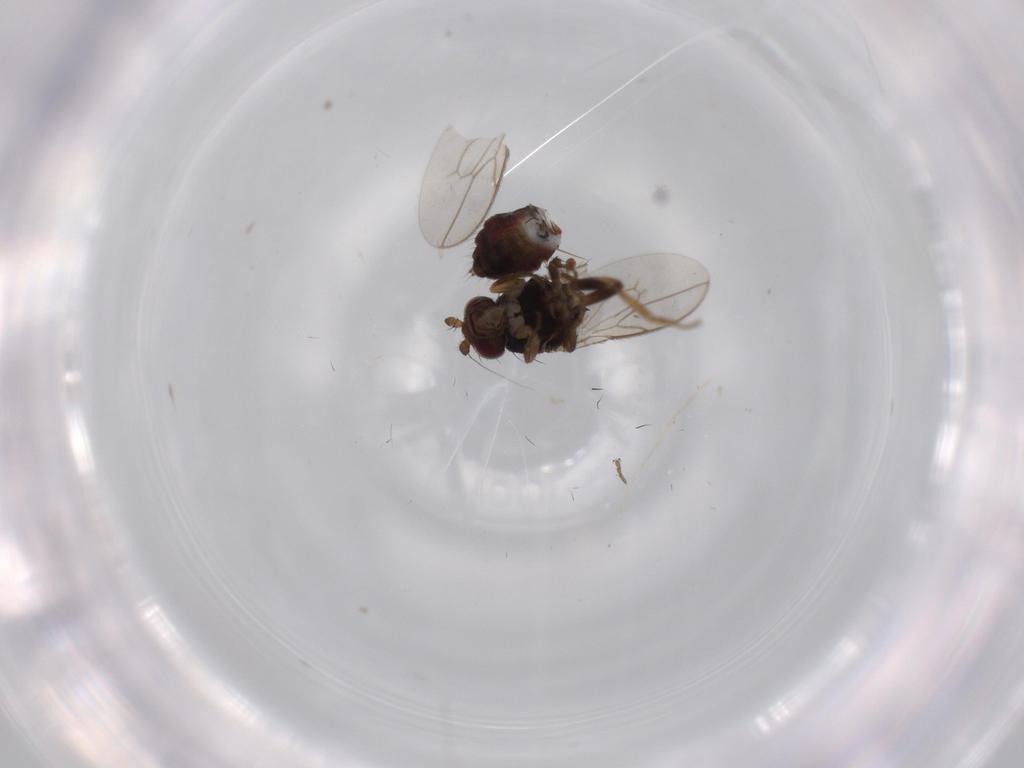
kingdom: Animalia
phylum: Arthropoda
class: Insecta
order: Diptera
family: Sphaeroceridae
